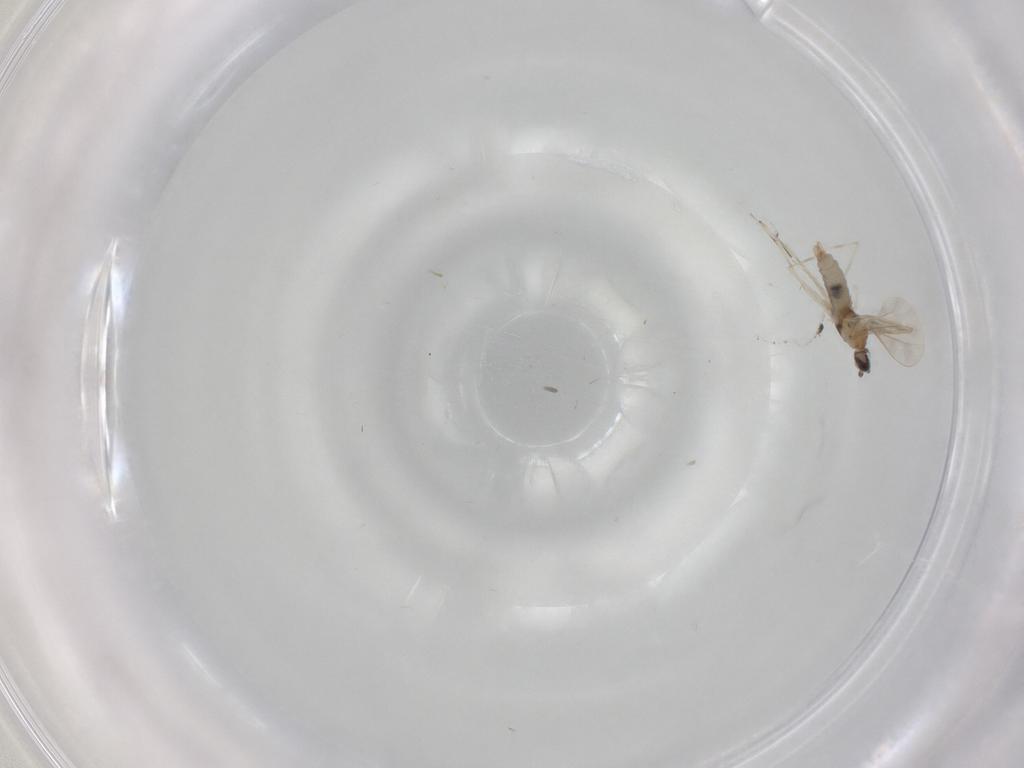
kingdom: Animalia
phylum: Arthropoda
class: Insecta
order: Diptera
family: Cecidomyiidae
